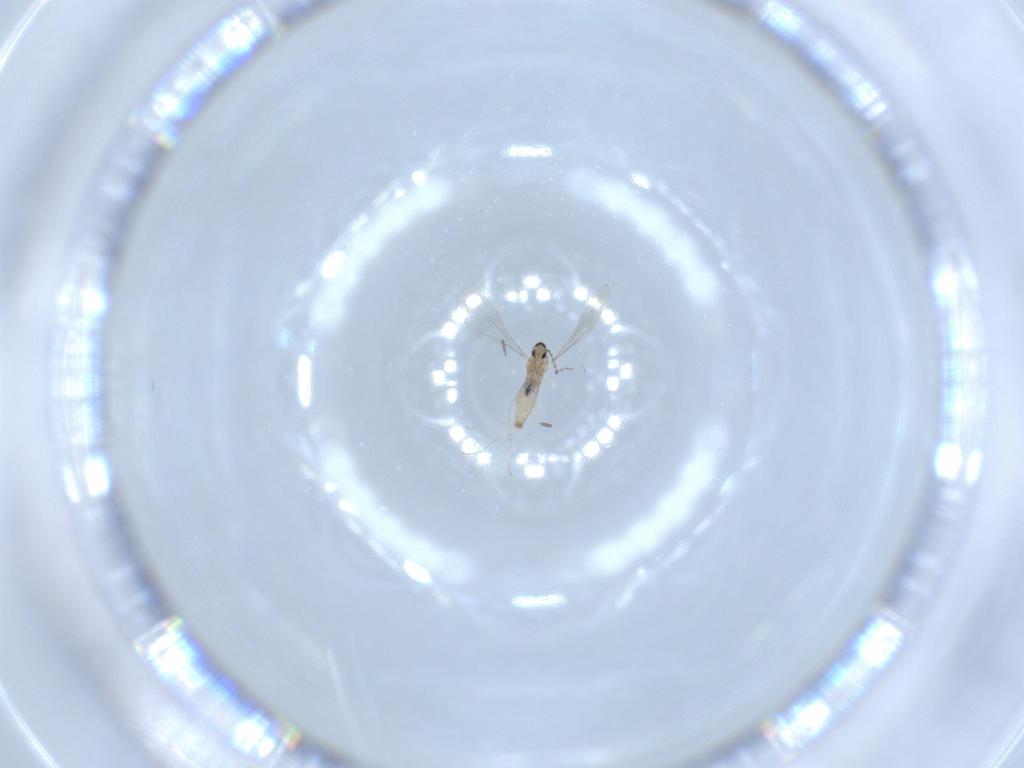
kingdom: Animalia
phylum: Arthropoda
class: Insecta
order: Diptera
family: Cecidomyiidae
